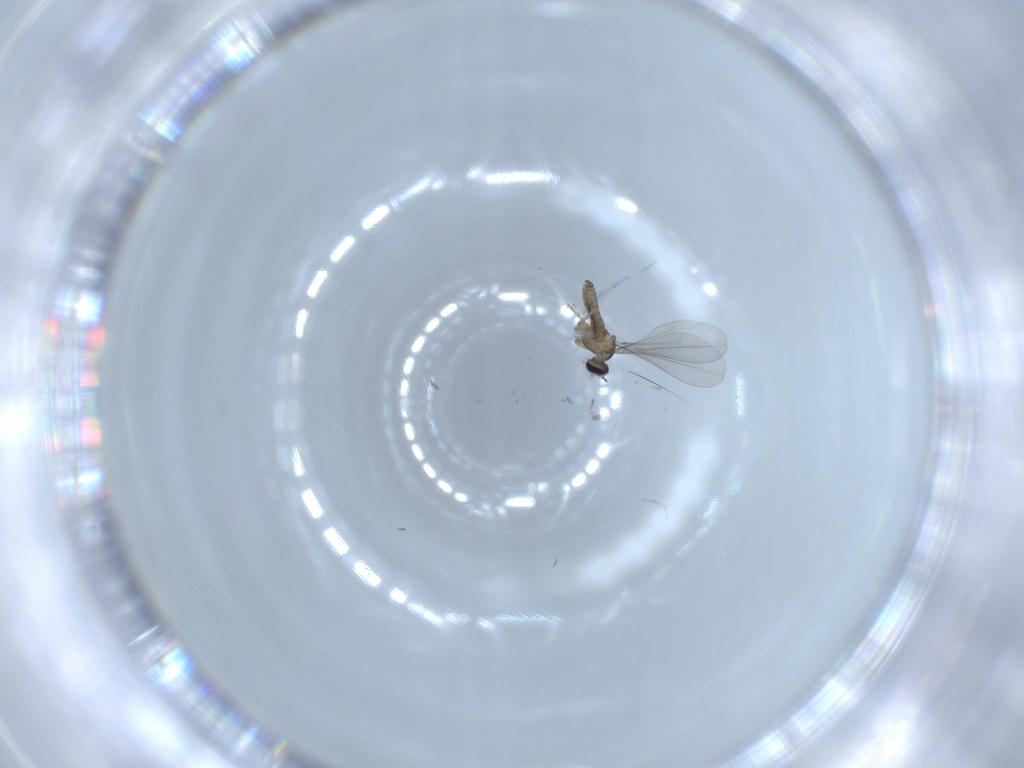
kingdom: Animalia
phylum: Arthropoda
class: Insecta
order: Diptera
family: Cecidomyiidae
